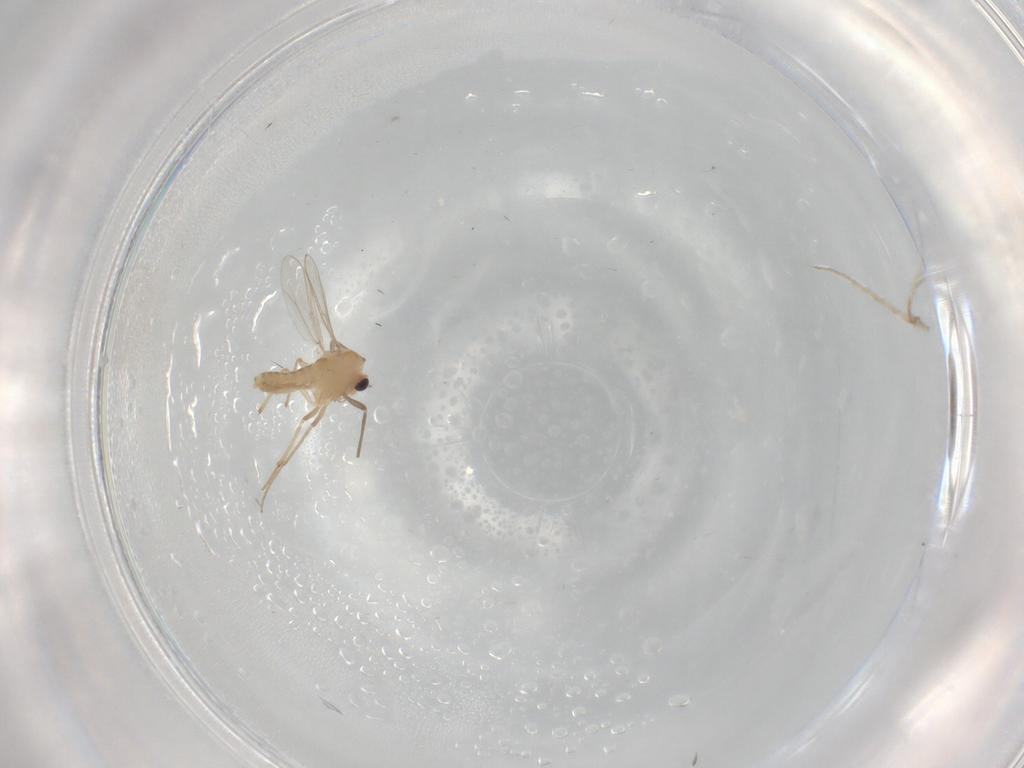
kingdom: Animalia
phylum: Arthropoda
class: Insecta
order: Diptera
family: Chironomidae
